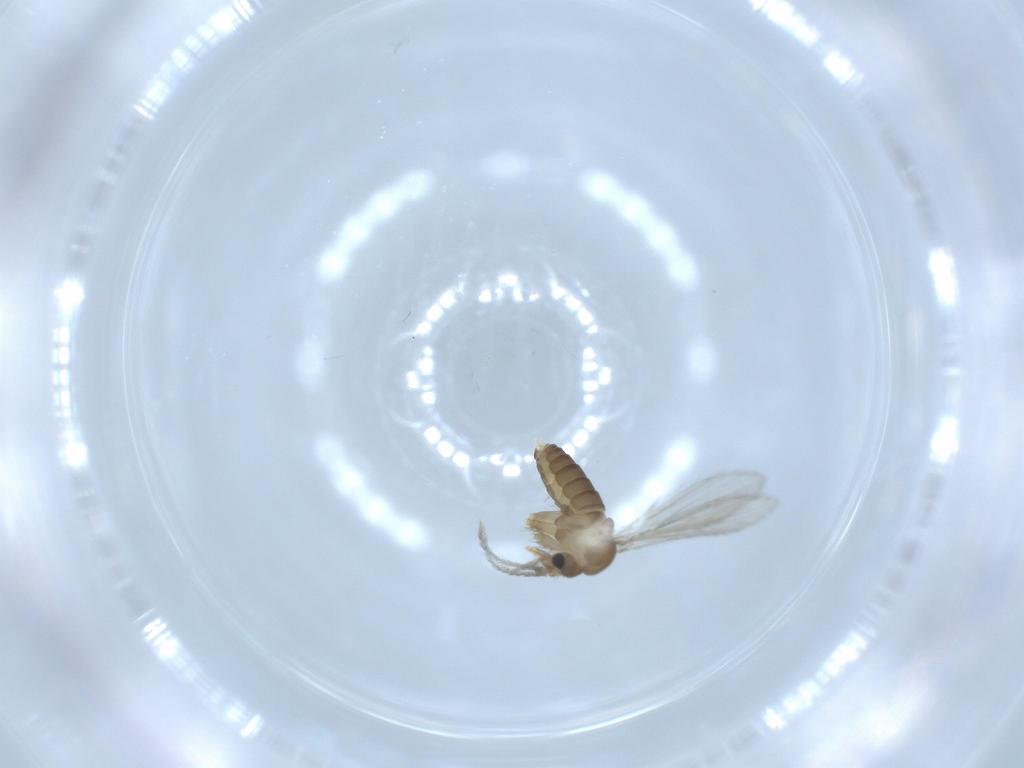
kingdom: Animalia
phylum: Arthropoda
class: Insecta
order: Diptera
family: Psychodidae
